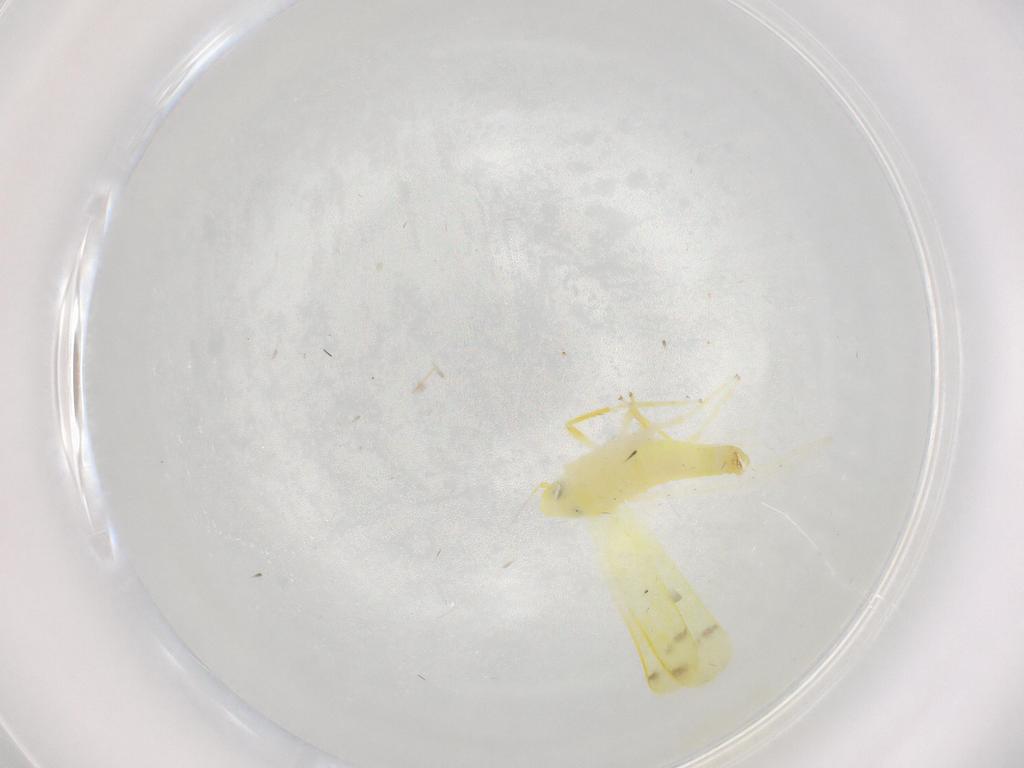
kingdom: Animalia
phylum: Arthropoda
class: Insecta
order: Hemiptera
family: Cicadellidae
